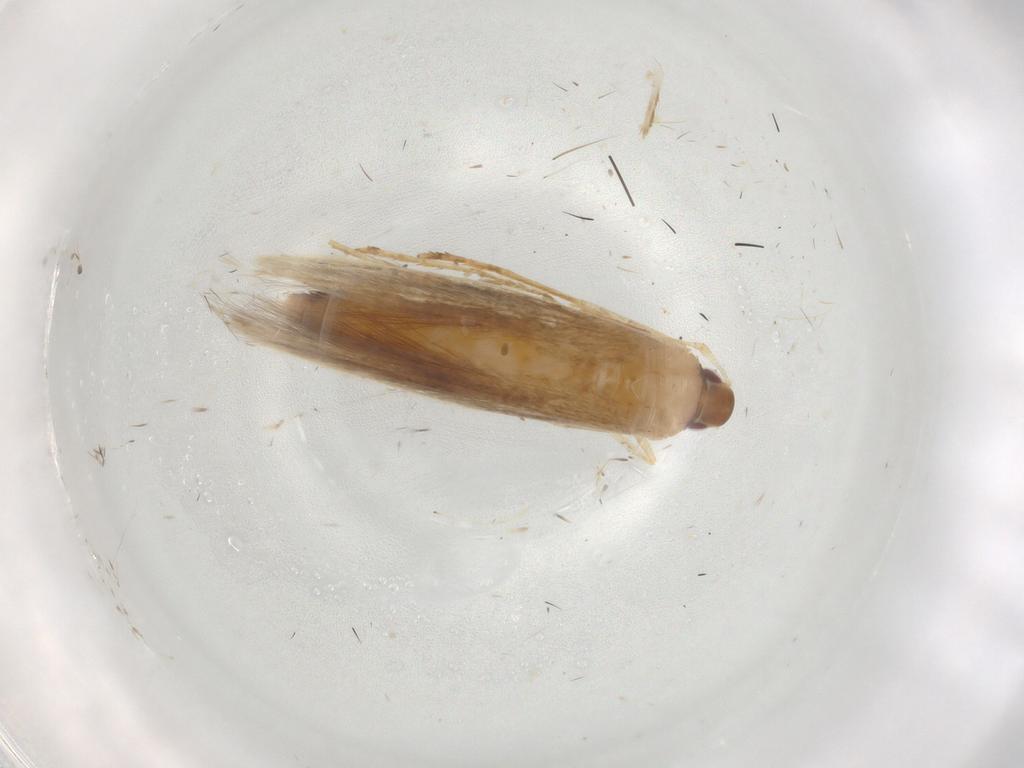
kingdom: Animalia
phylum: Arthropoda
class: Insecta
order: Lepidoptera
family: Cosmopterigidae
